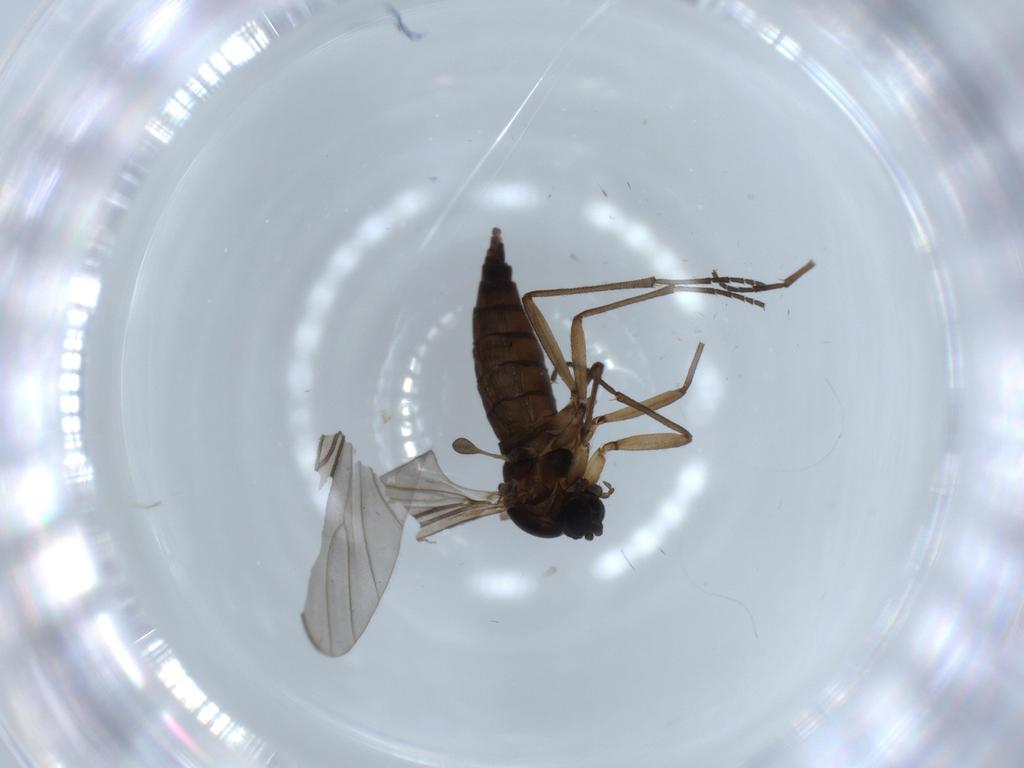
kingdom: Animalia
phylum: Arthropoda
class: Insecta
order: Diptera
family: Sciaridae
